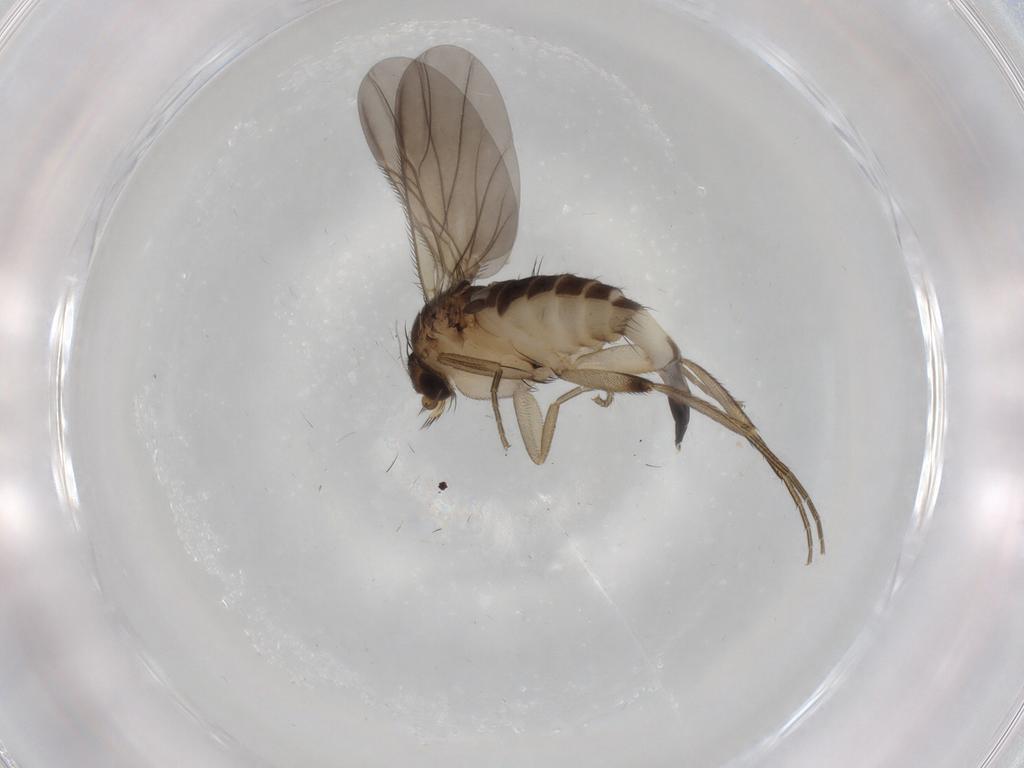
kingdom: Animalia
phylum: Arthropoda
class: Insecta
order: Diptera
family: Phoridae
